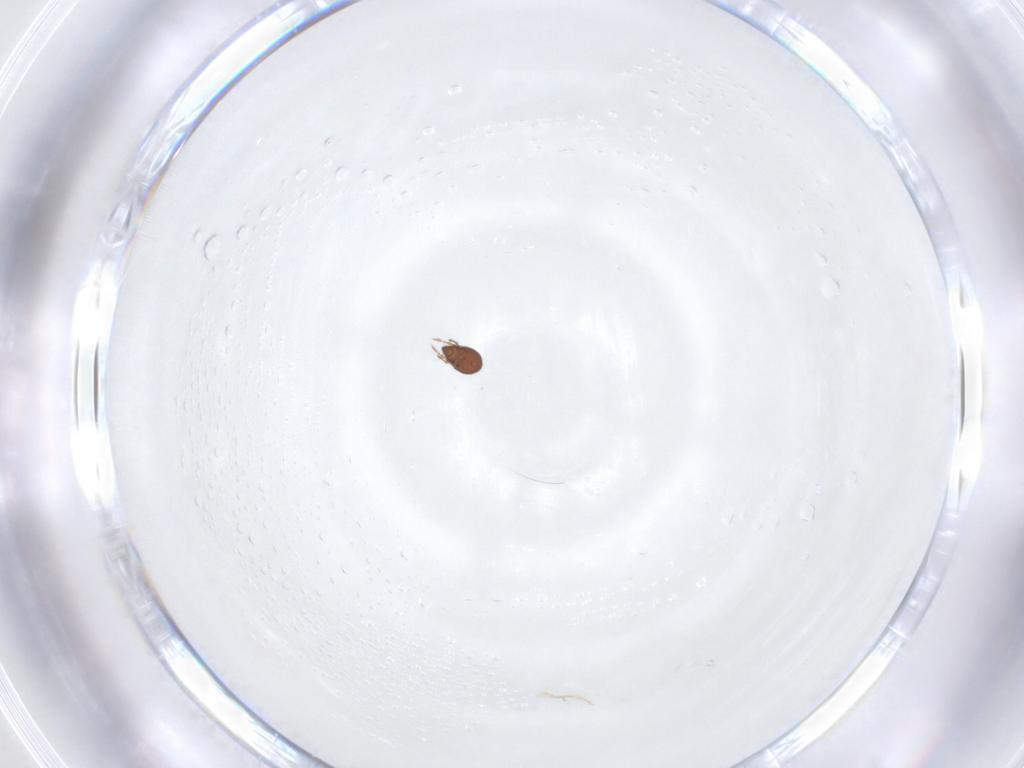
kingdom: Animalia
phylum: Arthropoda
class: Arachnida
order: Sarcoptiformes
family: Dendroeremaeidae
